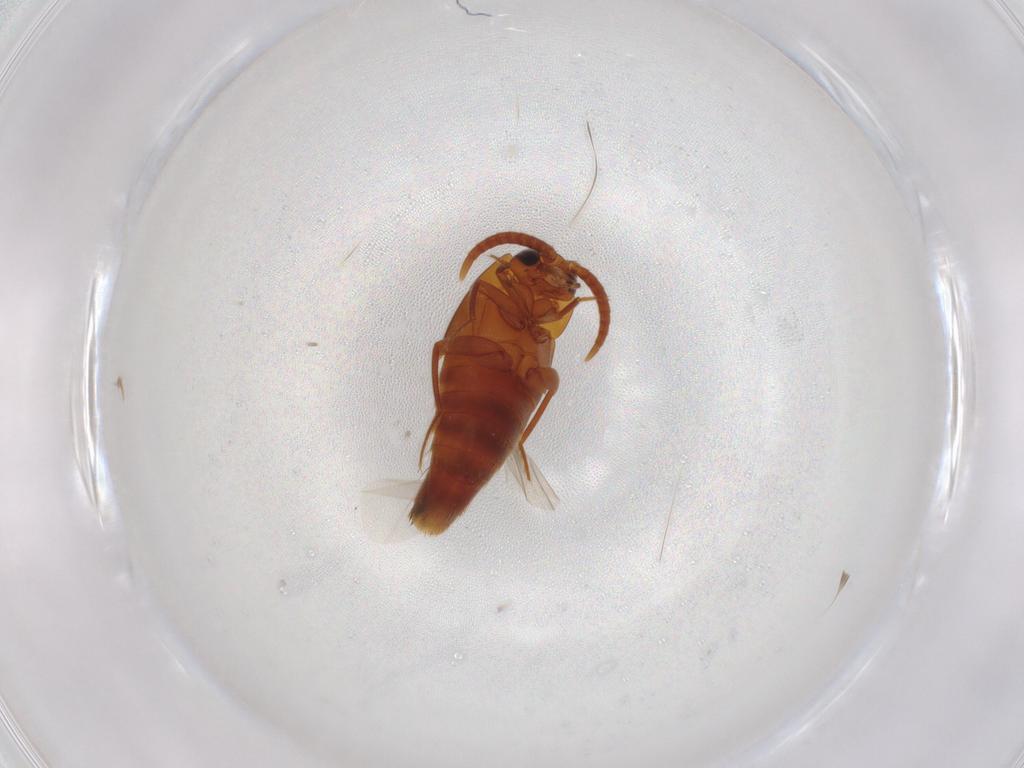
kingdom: Animalia
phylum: Arthropoda
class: Insecta
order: Coleoptera
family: Staphylinidae
